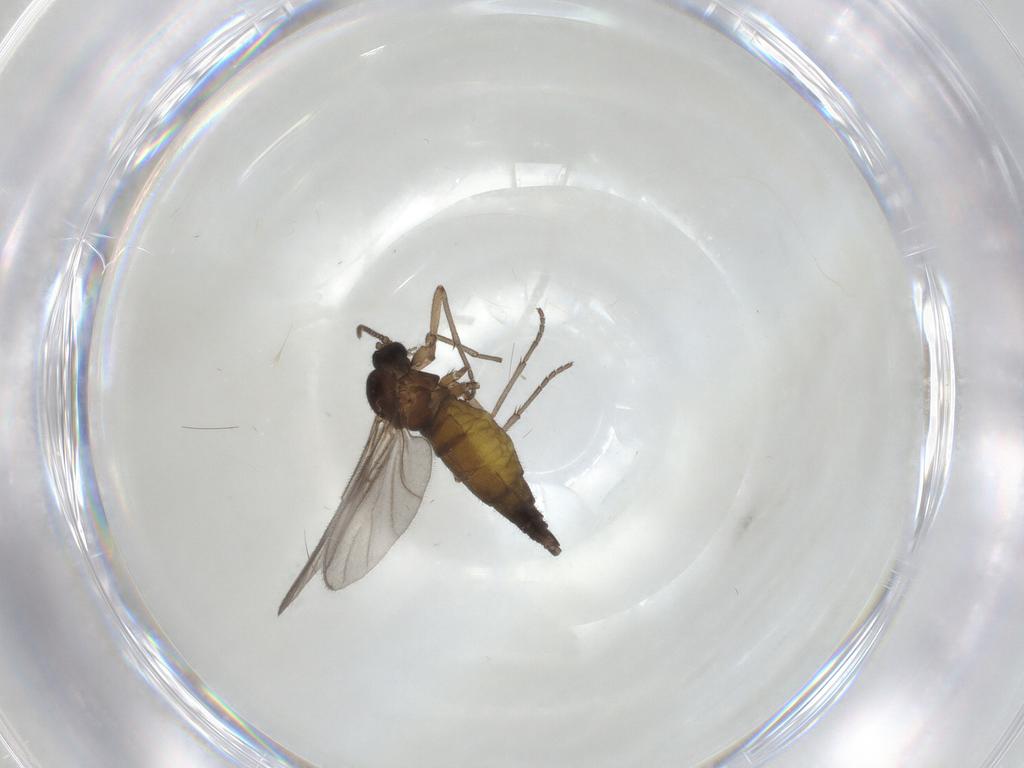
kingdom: Animalia
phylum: Arthropoda
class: Insecta
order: Diptera
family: Sciaridae
